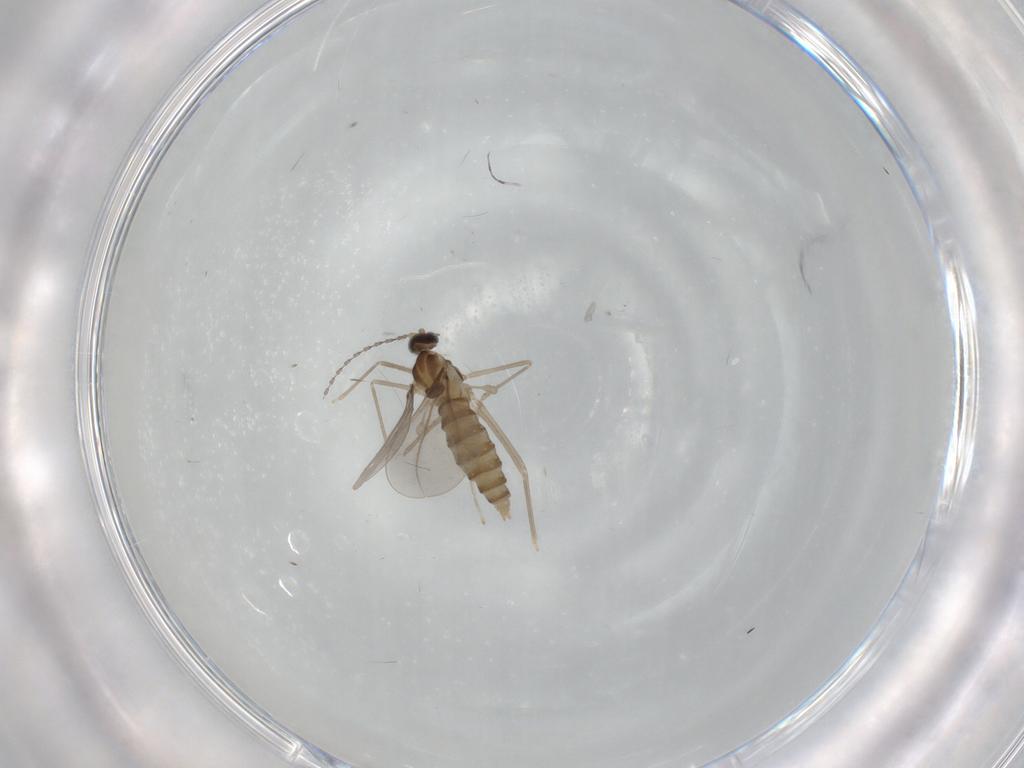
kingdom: Animalia
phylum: Arthropoda
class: Insecta
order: Diptera
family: Cecidomyiidae
